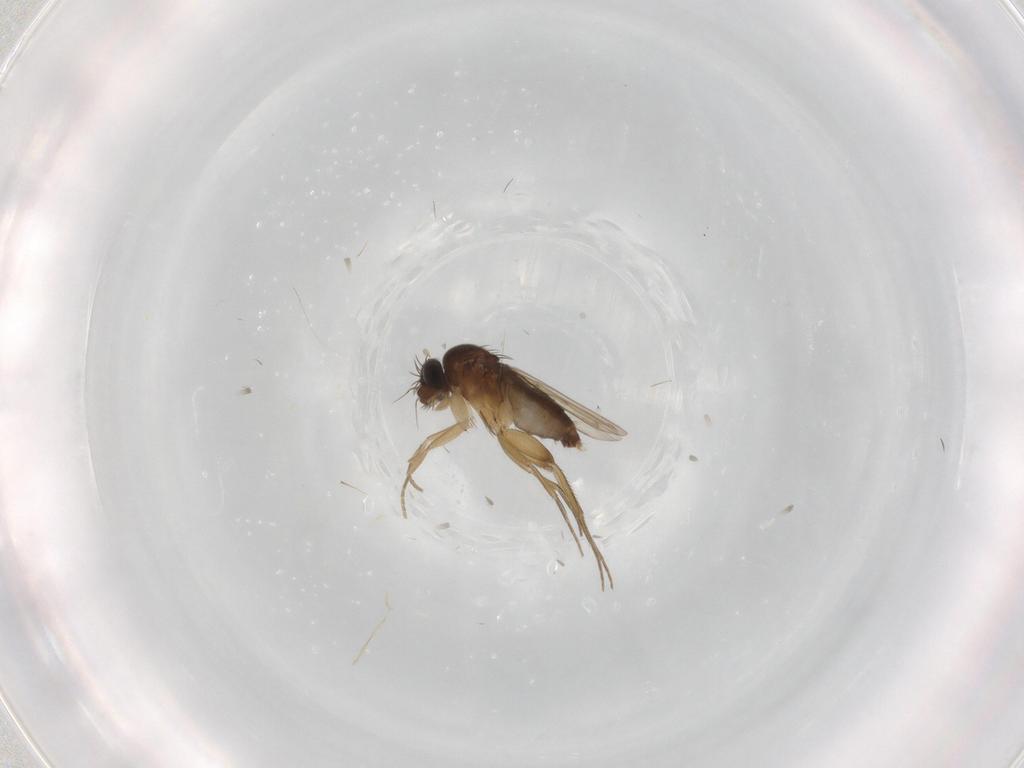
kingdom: Animalia
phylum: Arthropoda
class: Insecta
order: Diptera
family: Phoridae
